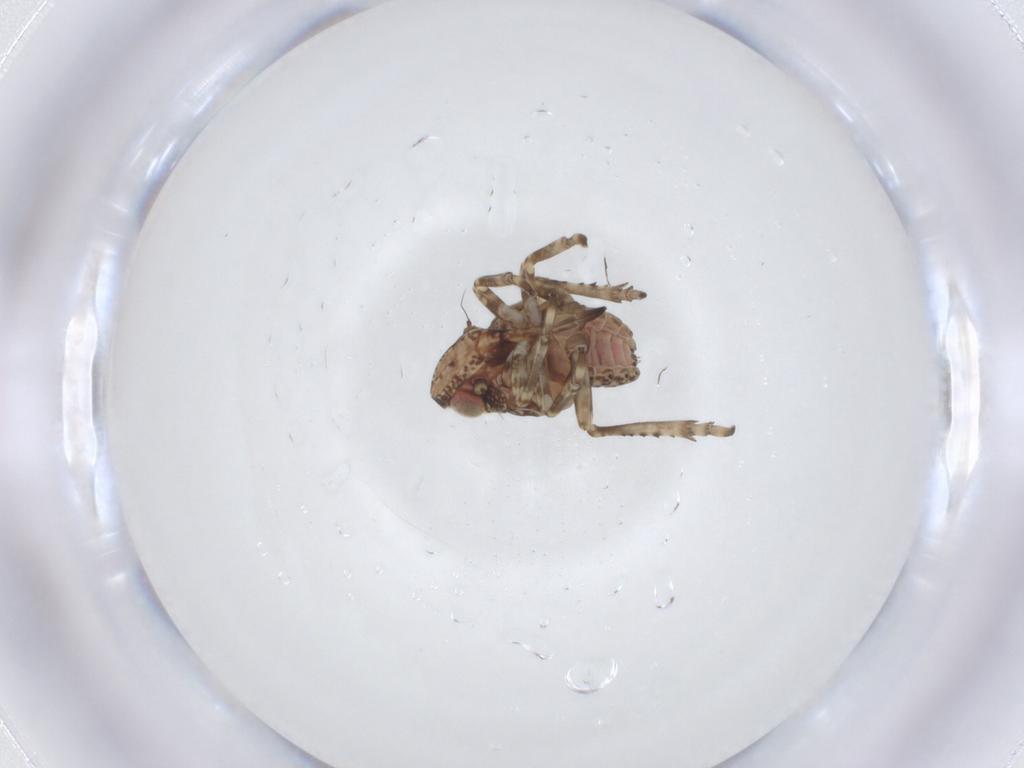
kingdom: Animalia
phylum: Arthropoda
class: Insecta
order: Hemiptera
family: Tropiduchidae
